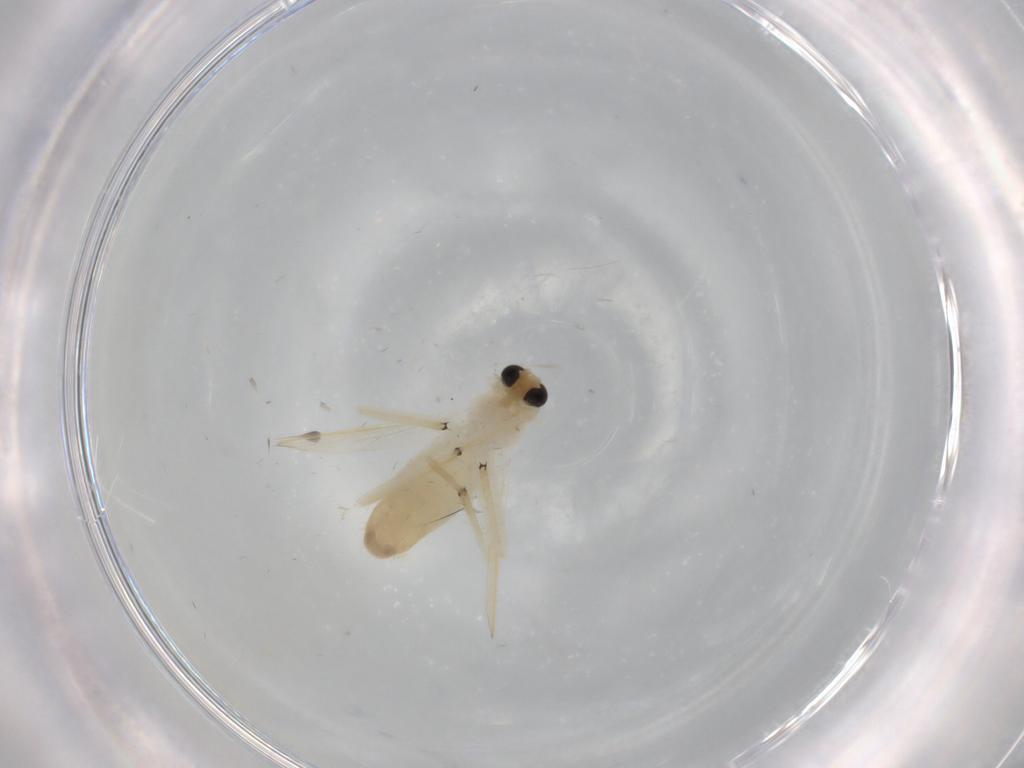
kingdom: Animalia
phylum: Arthropoda
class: Insecta
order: Diptera
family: Chironomidae
